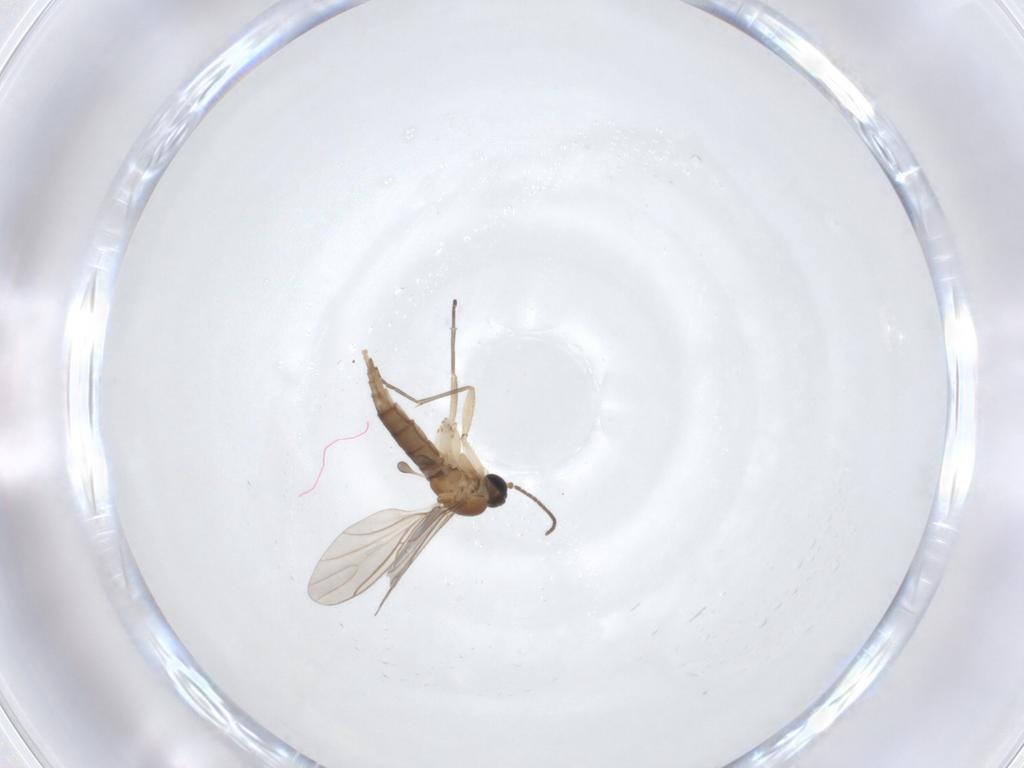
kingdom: Animalia
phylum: Arthropoda
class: Insecta
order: Diptera
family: Sciaridae
